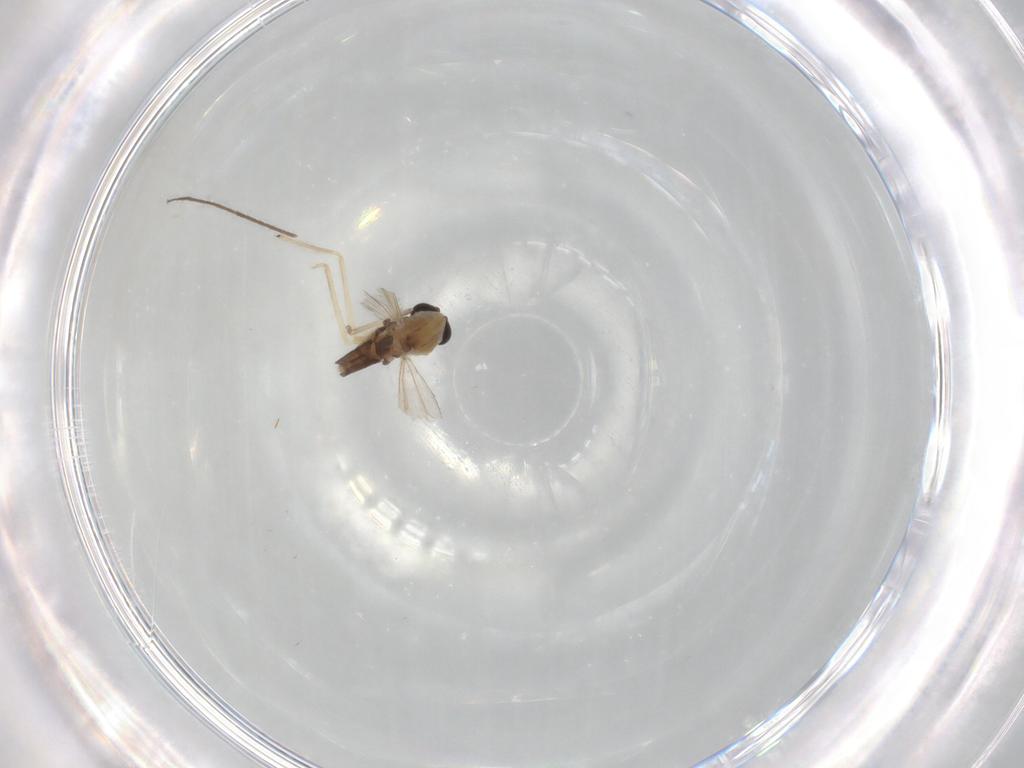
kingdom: Animalia
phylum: Arthropoda
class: Insecta
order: Diptera
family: Chironomidae
